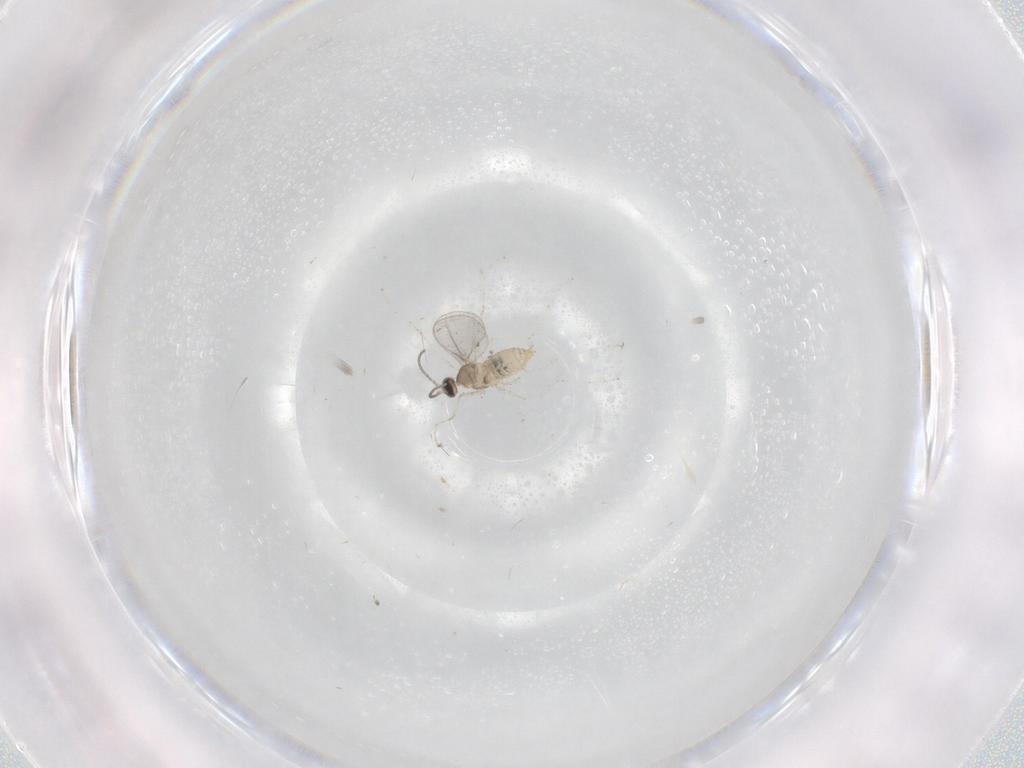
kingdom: Animalia
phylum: Arthropoda
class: Insecta
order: Diptera
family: Cecidomyiidae
